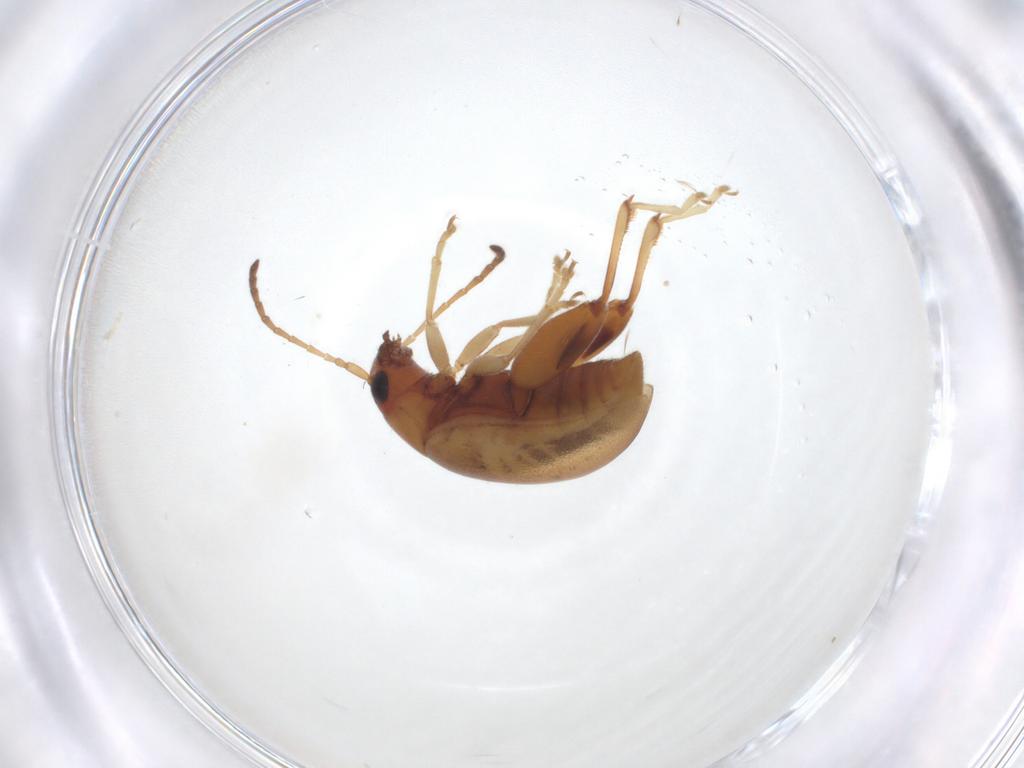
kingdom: Animalia
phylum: Arthropoda
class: Insecta
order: Coleoptera
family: Chrysomelidae
